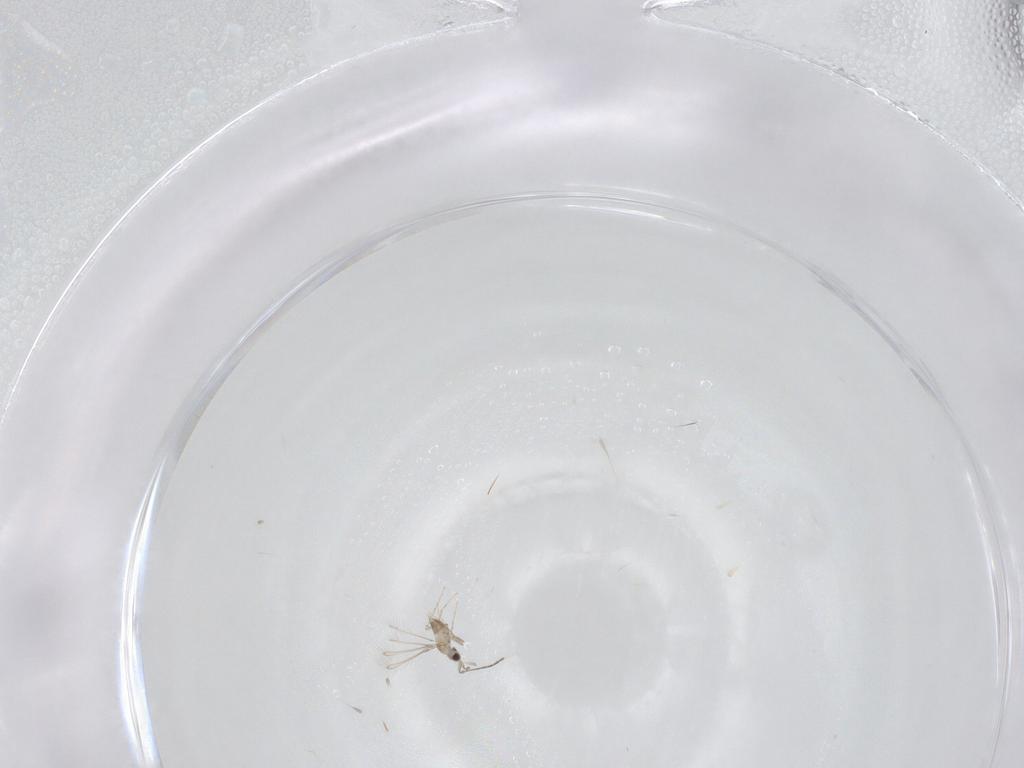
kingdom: Animalia
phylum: Arthropoda
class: Insecta
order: Hymenoptera
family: Mymaridae
